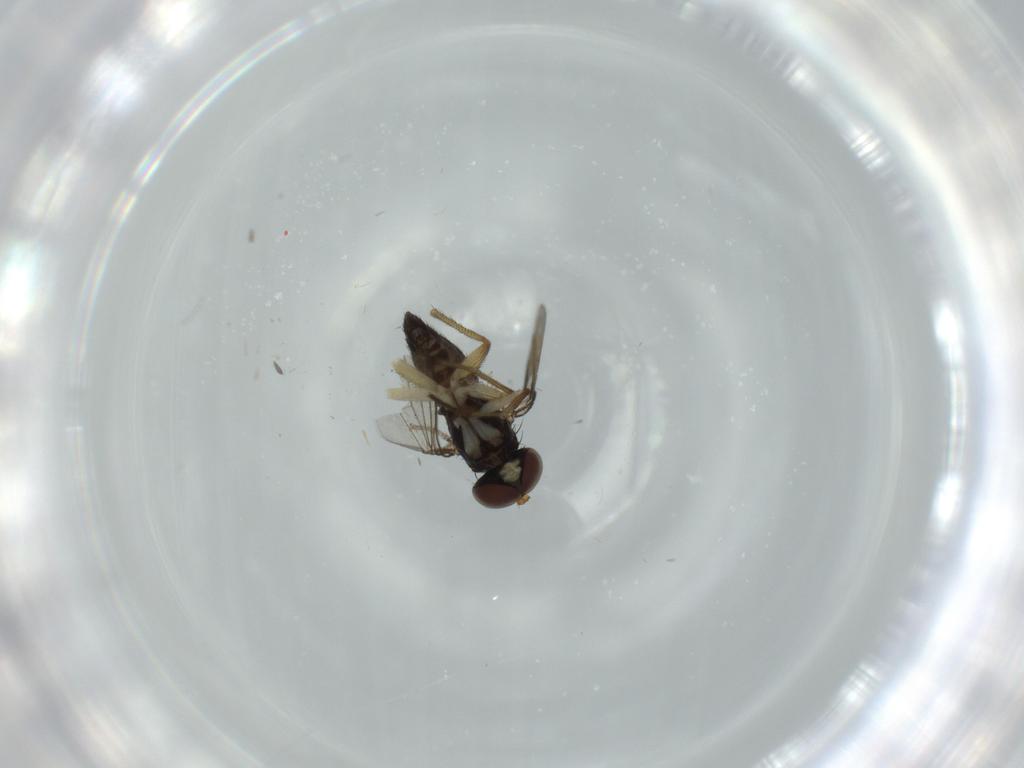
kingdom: Animalia
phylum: Arthropoda
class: Insecta
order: Diptera
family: Dolichopodidae
